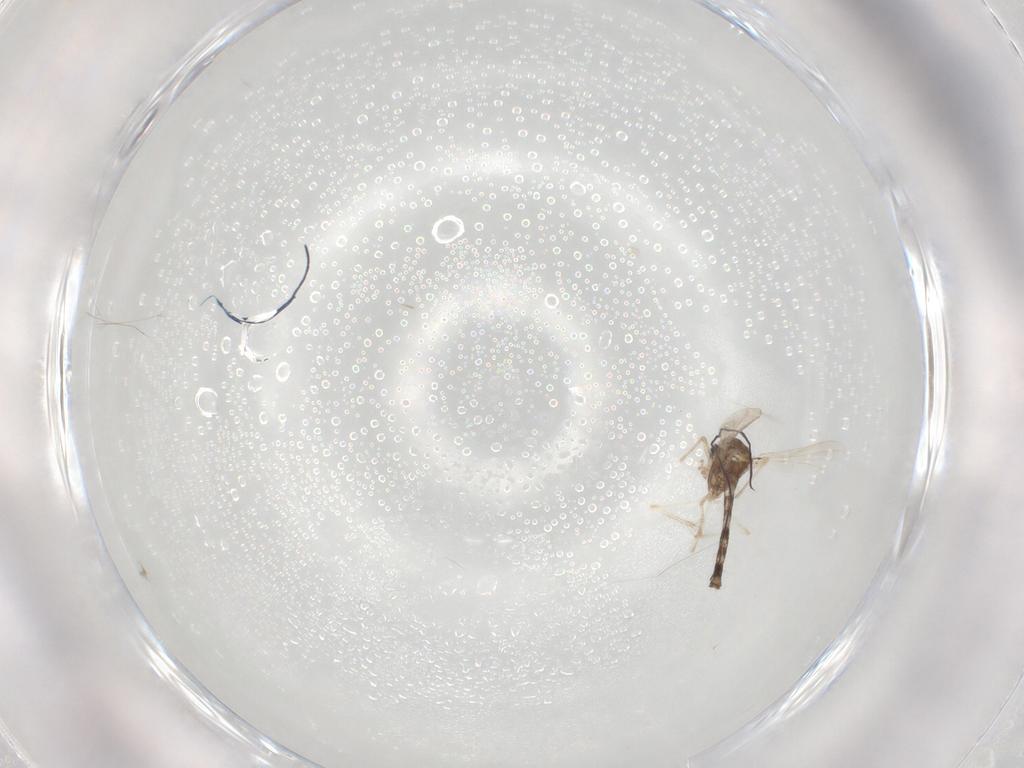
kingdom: Animalia
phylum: Arthropoda
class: Insecta
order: Diptera
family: Chironomidae
